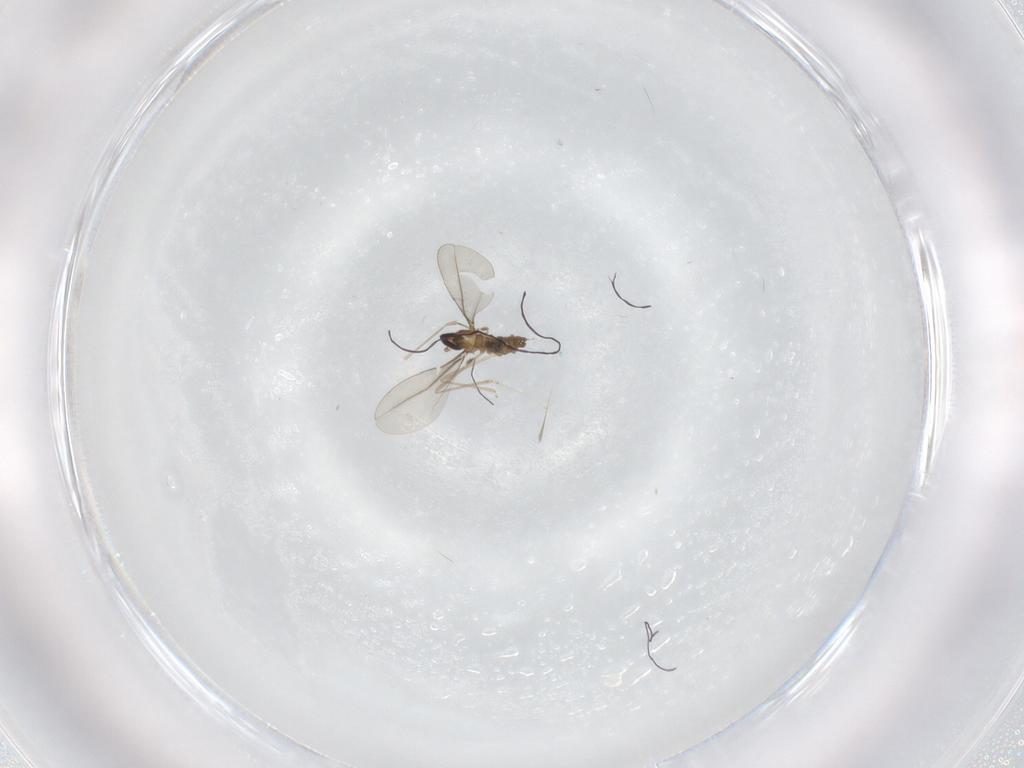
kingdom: Animalia
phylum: Arthropoda
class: Insecta
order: Diptera
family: Cecidomyiidae
